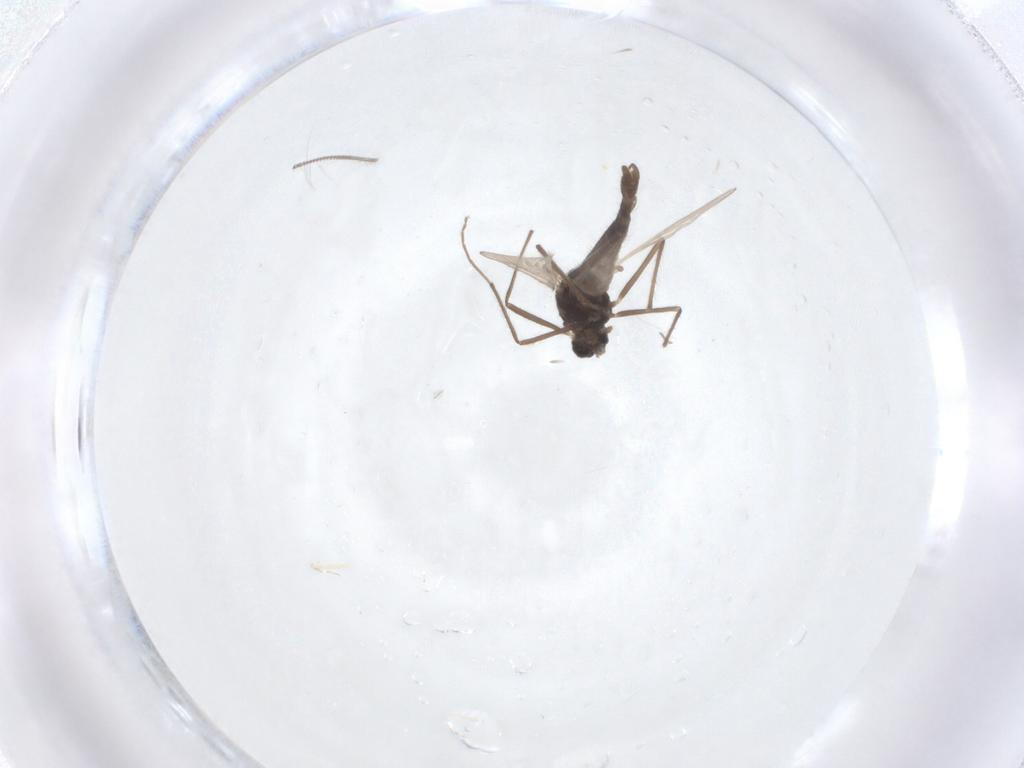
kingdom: Animalia
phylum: Arthropoda
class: Insecta
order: Diptera
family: Chironomidae
